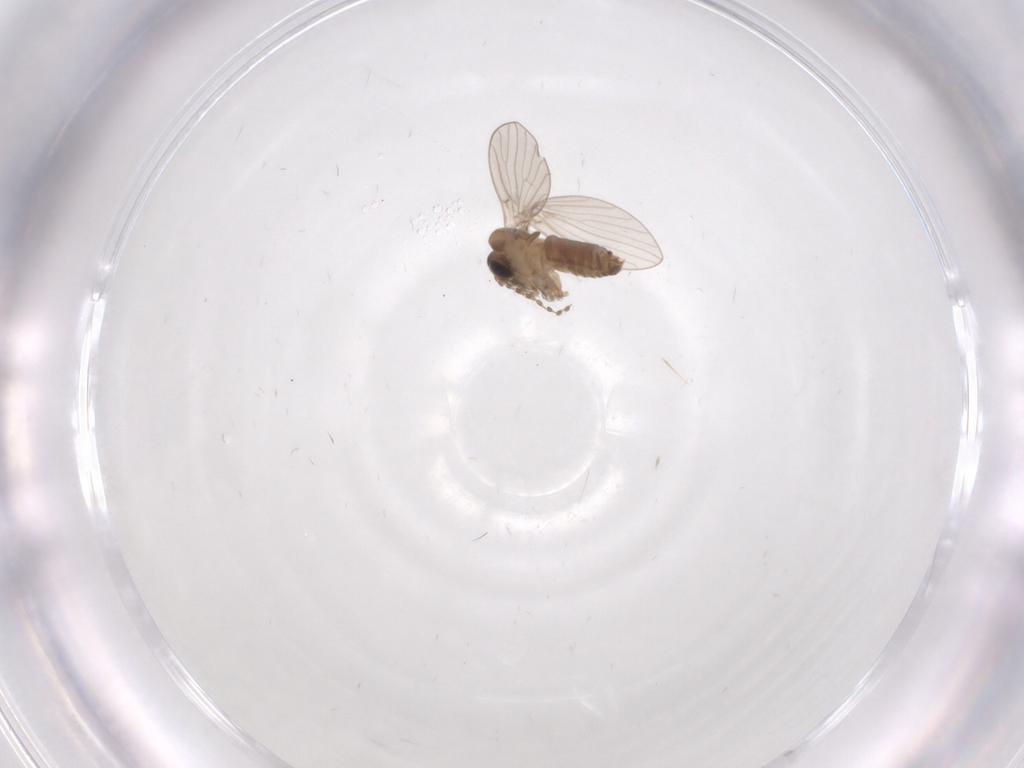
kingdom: Animalia
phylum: Arthropoda
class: Insecta
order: Diptera
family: Psychodidae
